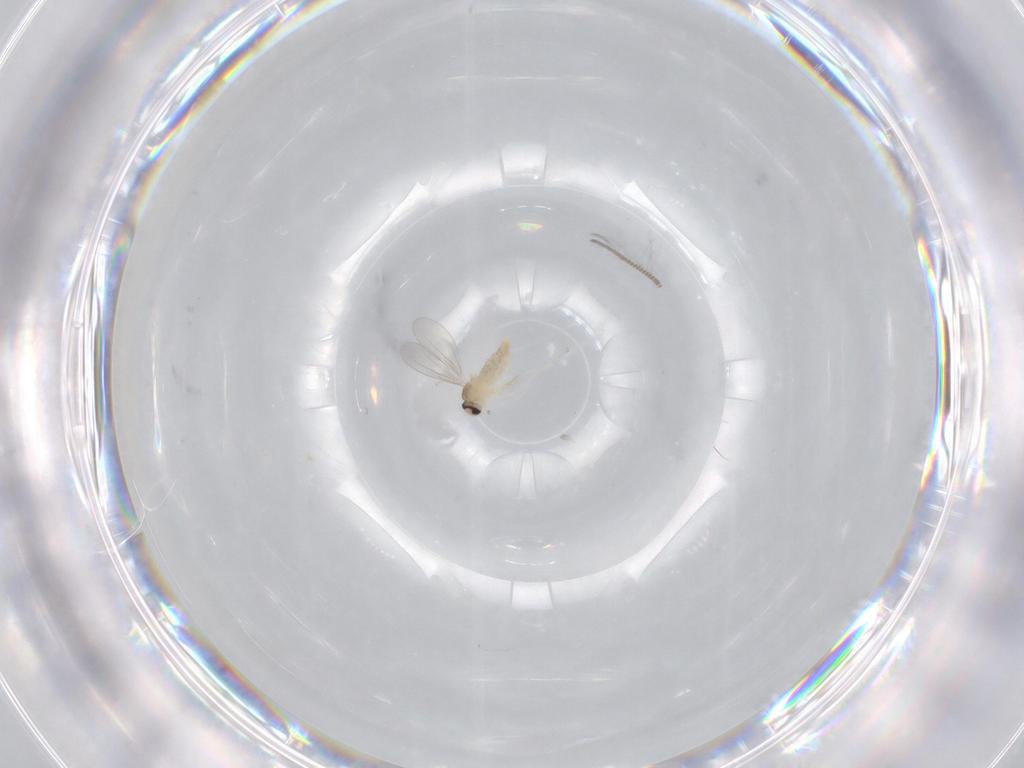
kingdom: Animalia
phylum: Arthropoda
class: Insecta
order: Diptera
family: Cecidomyiidae
